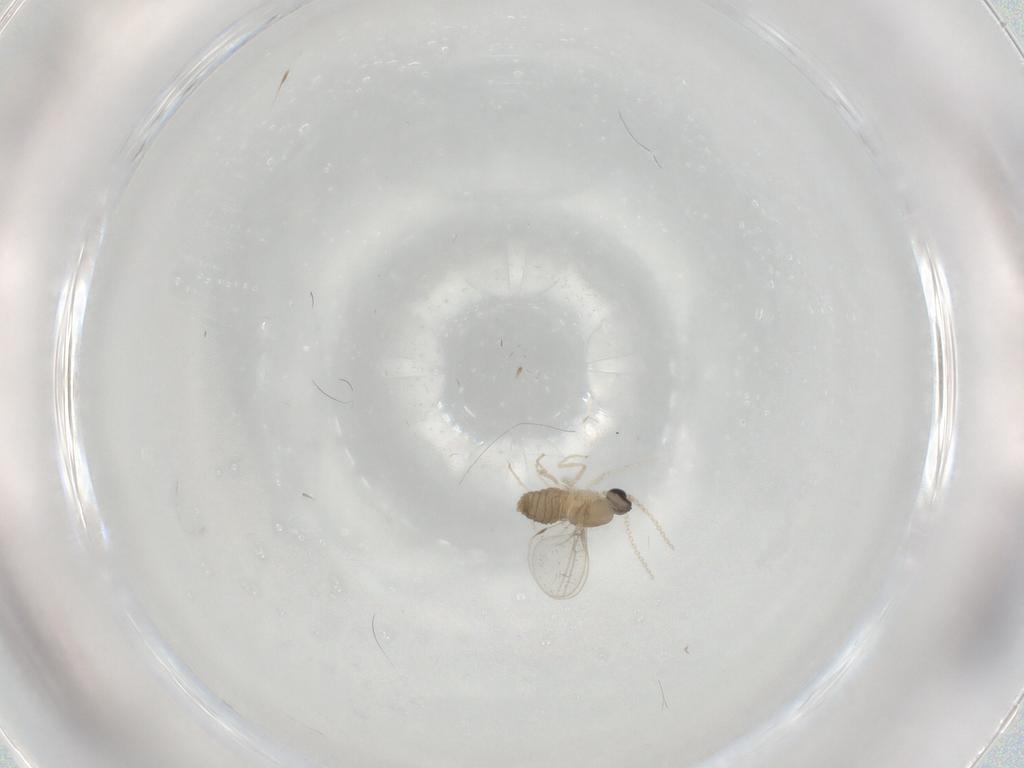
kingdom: Animalia
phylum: Arthropoda
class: Insecta
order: Diptera
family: Cecidomyiidae
